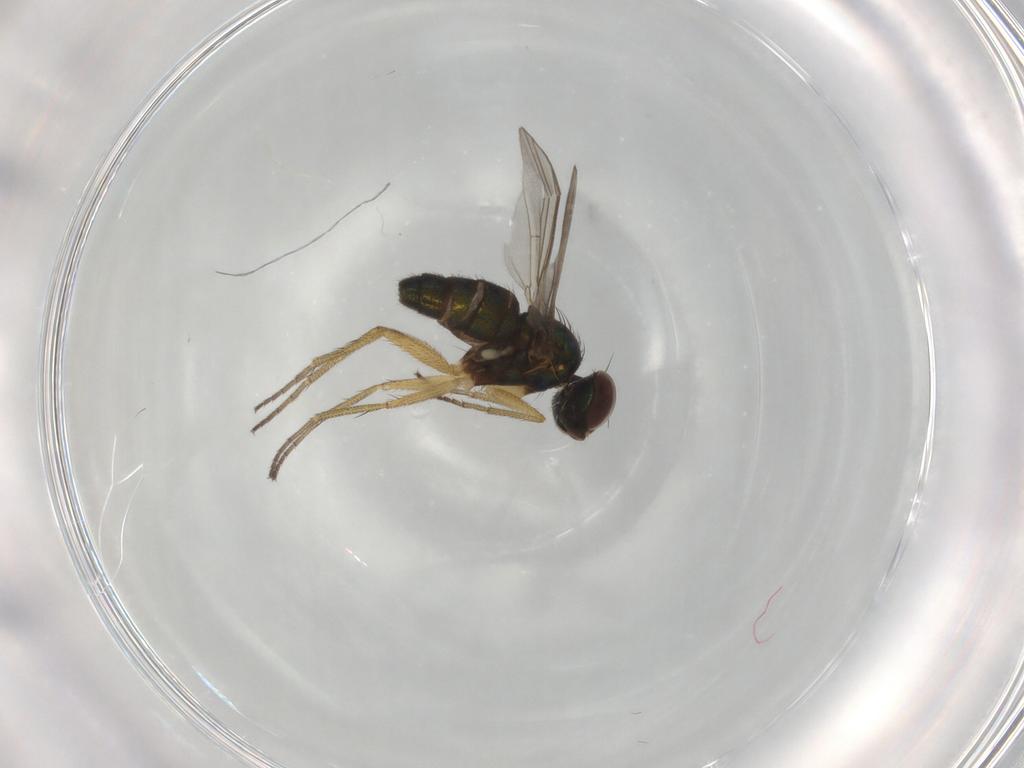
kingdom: Animalia
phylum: Arthropoda
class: Insecta
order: Diptera
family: Dolichopodidae
